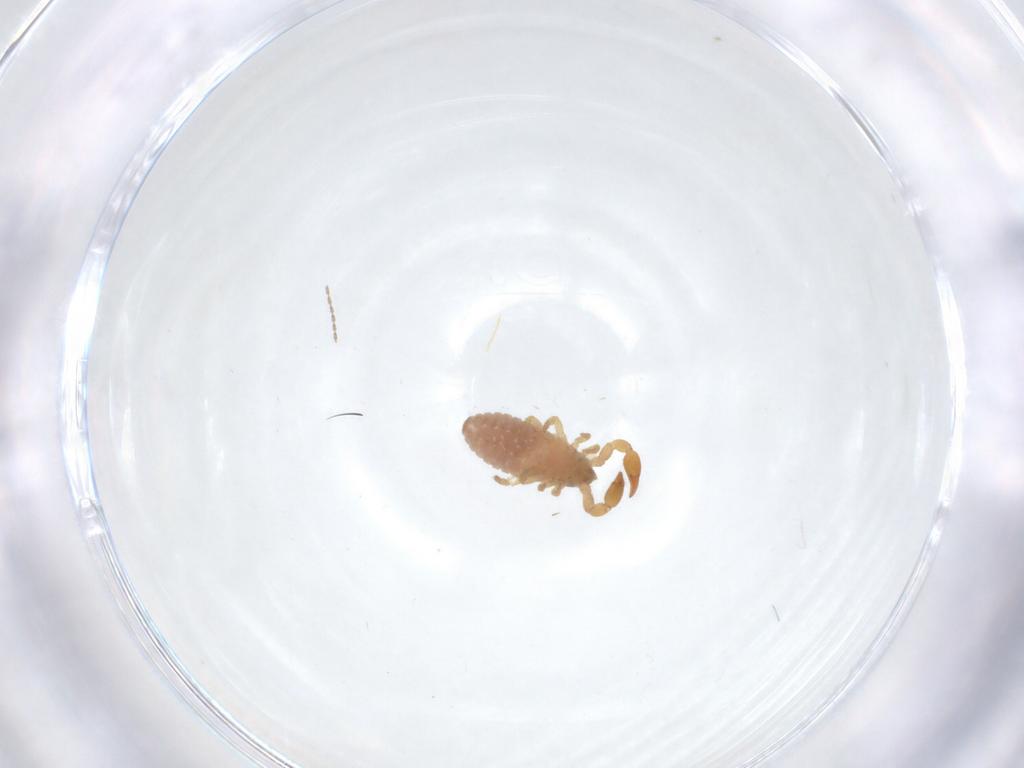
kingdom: Animalia
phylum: Arthropoda
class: Arachnida
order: Pseudoscorpiones
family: Chernetidae
